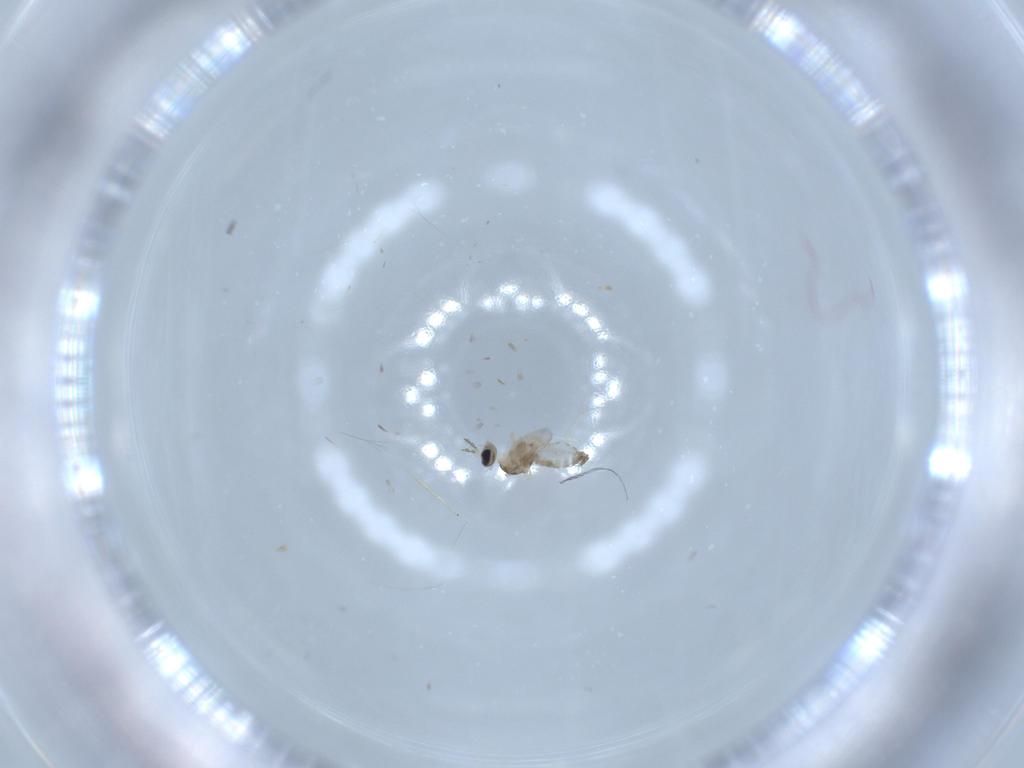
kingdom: Animalia
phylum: Arthropoda
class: Insecta
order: Diptera
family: Cecidomyiidae
